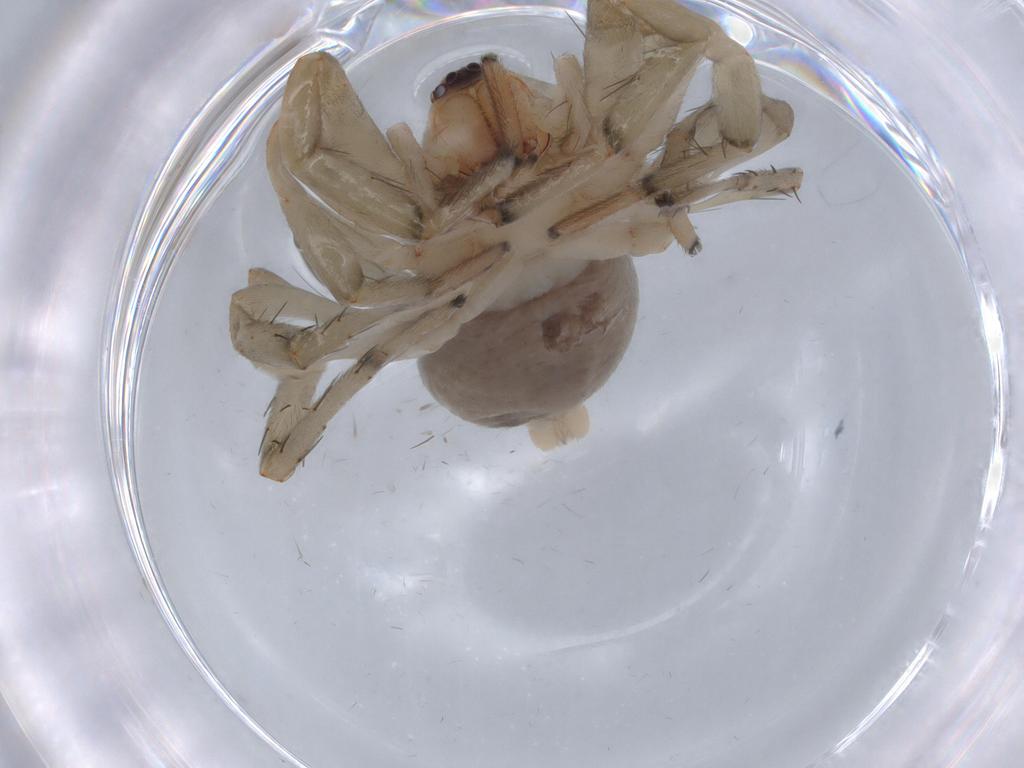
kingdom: Animalia
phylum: Arthropoda
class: Arachnida
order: Araneae
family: Gnaphosidae
